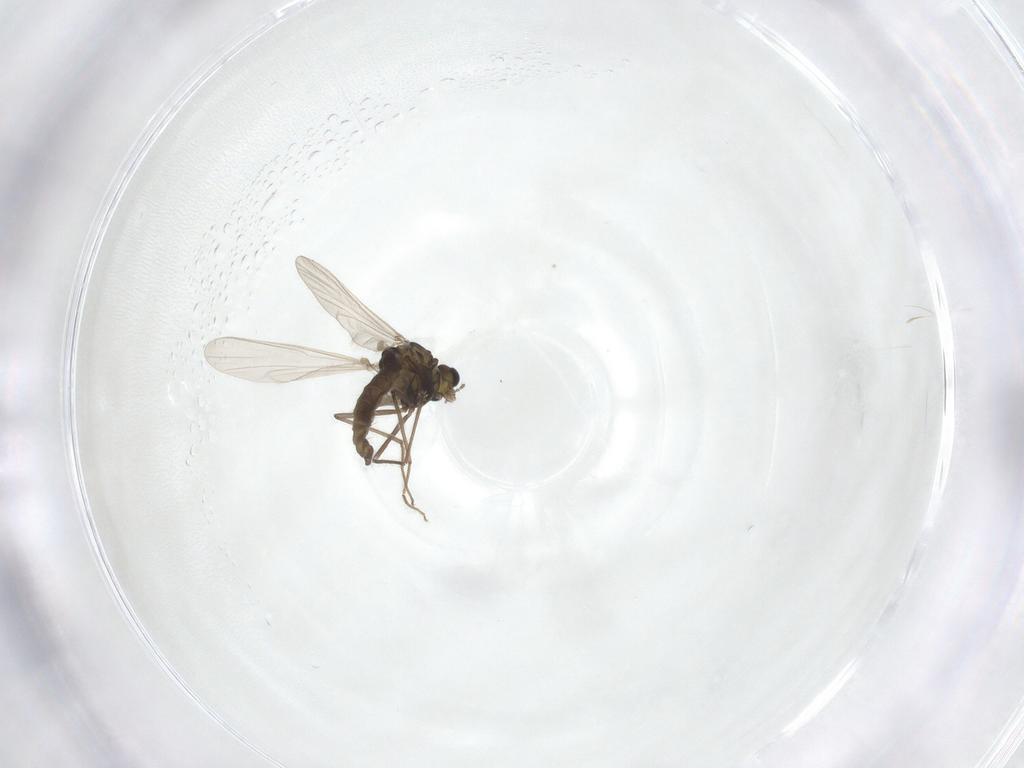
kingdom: Animalia
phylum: Arthropoda
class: Insecta
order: Diptera
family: Chironomidae
